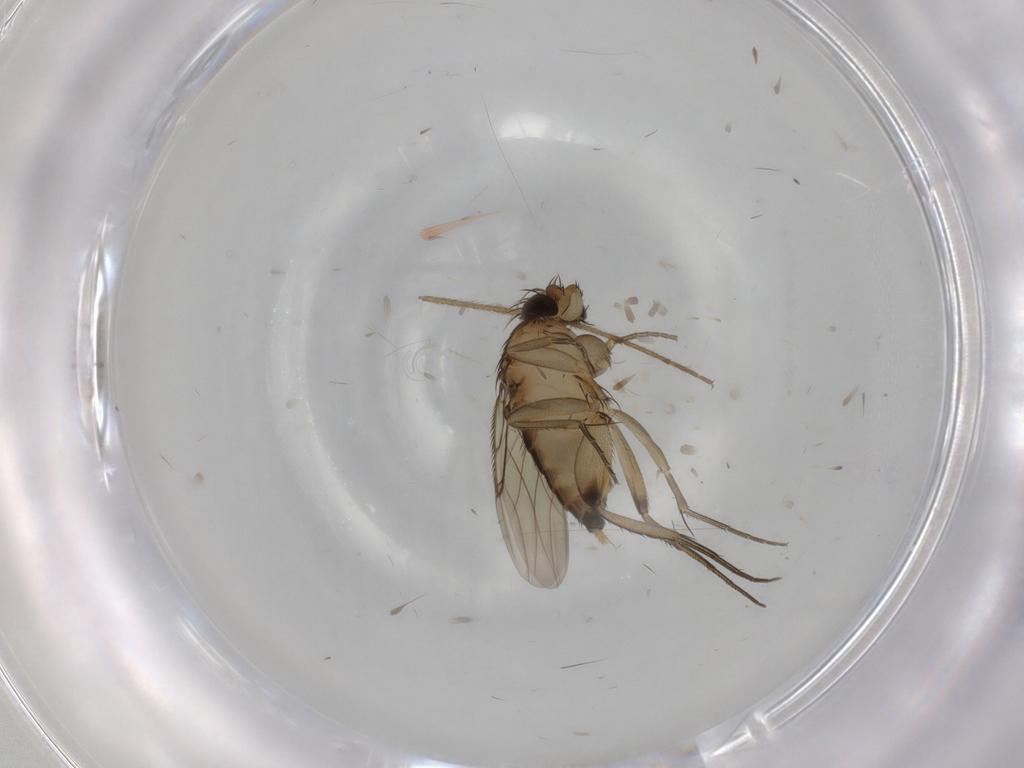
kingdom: Animalia
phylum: Arthropoda
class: Insecta
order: Diptera
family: Chironomidae
